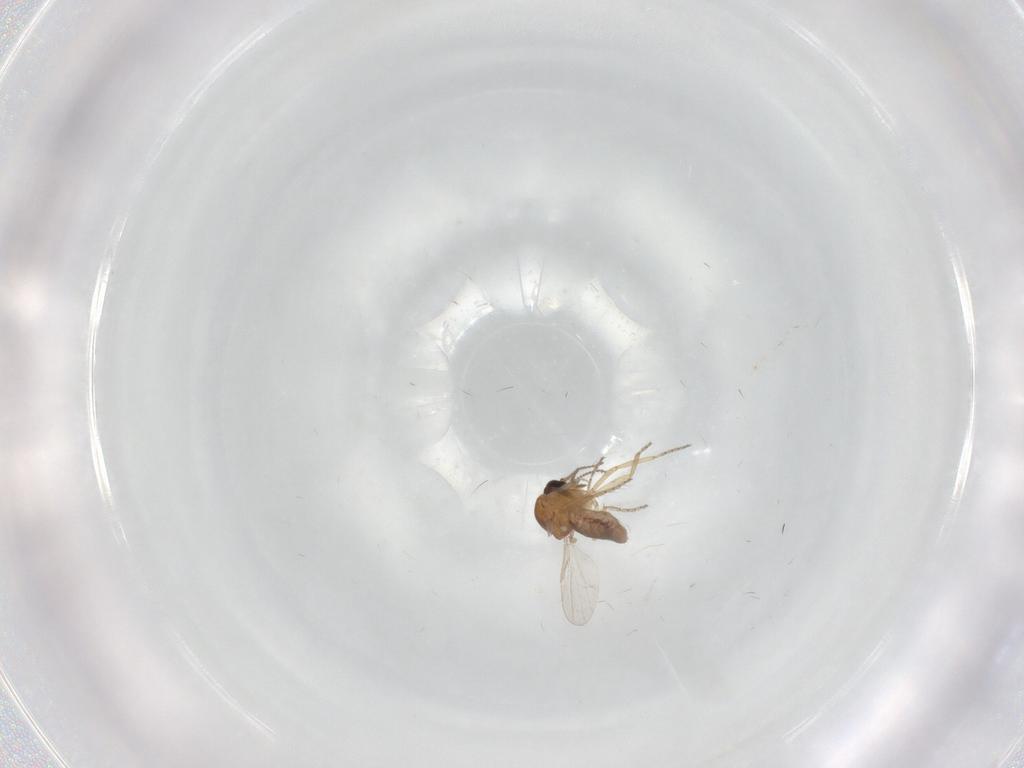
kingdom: Animalia
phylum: Arthropoda
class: Insecta
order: Diptera
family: Ceratopogonidae
